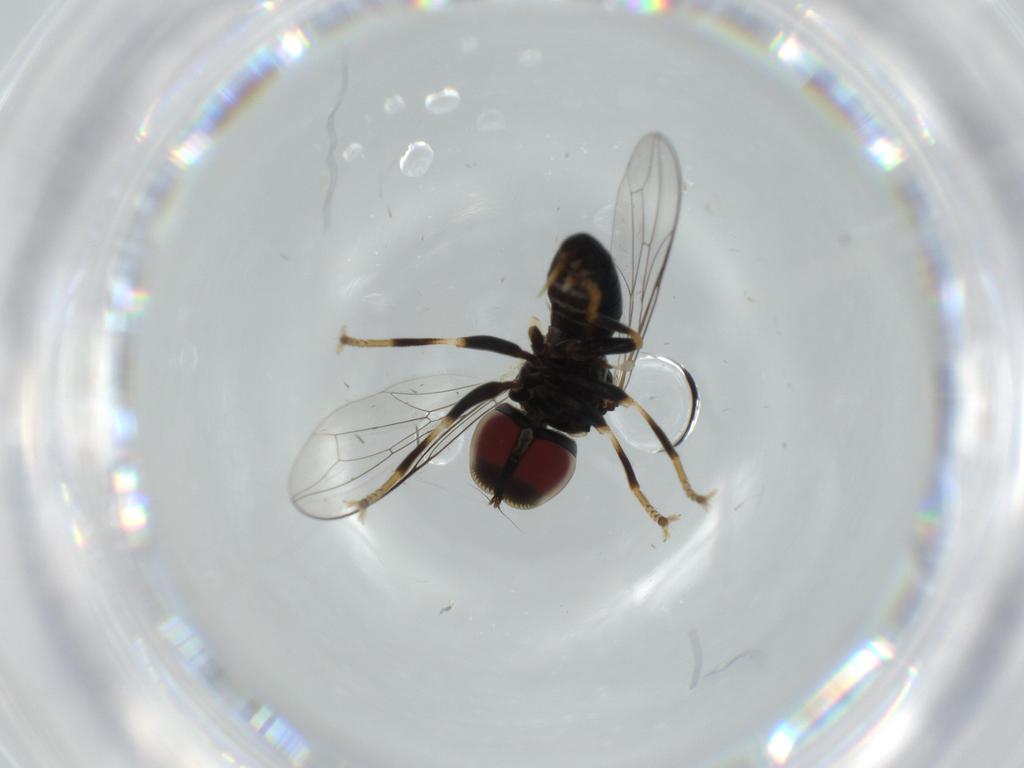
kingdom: Animalia
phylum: Arthropoda
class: Insecta
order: Diptera
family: Pipunculidae
